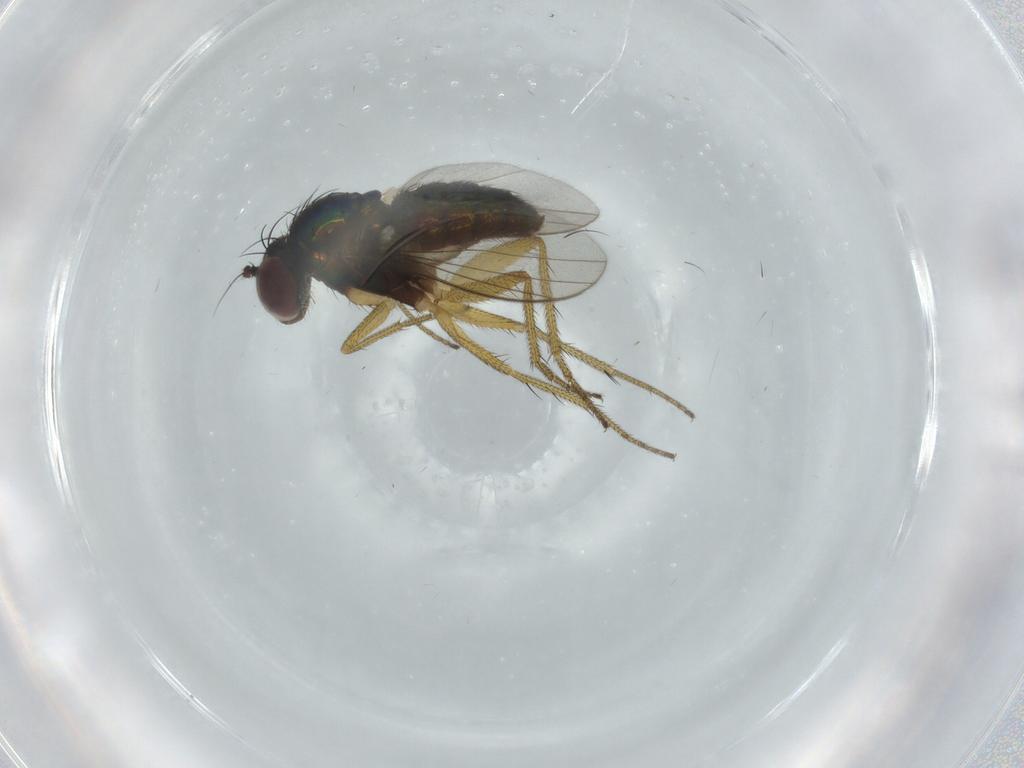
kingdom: Animalia
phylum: Arthropoda
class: Insecta
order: Diptera
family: Dolichopodidae
